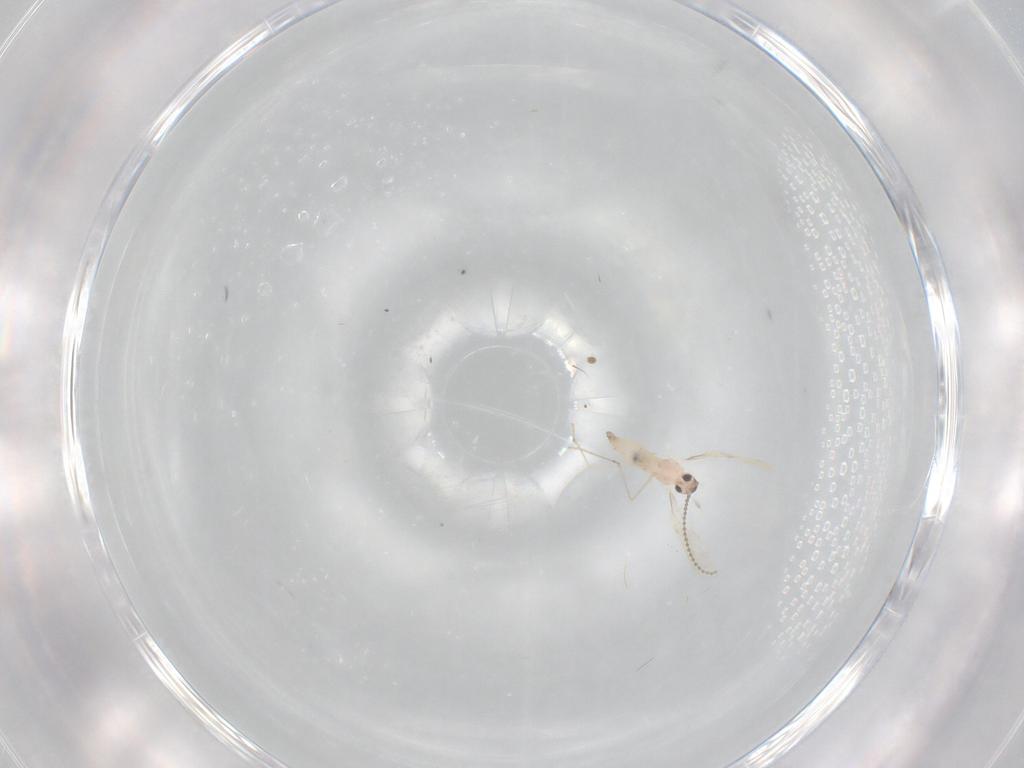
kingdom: Animalia
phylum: Arthropoda
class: Insecta
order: Diptera
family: Cecidomyiidae
